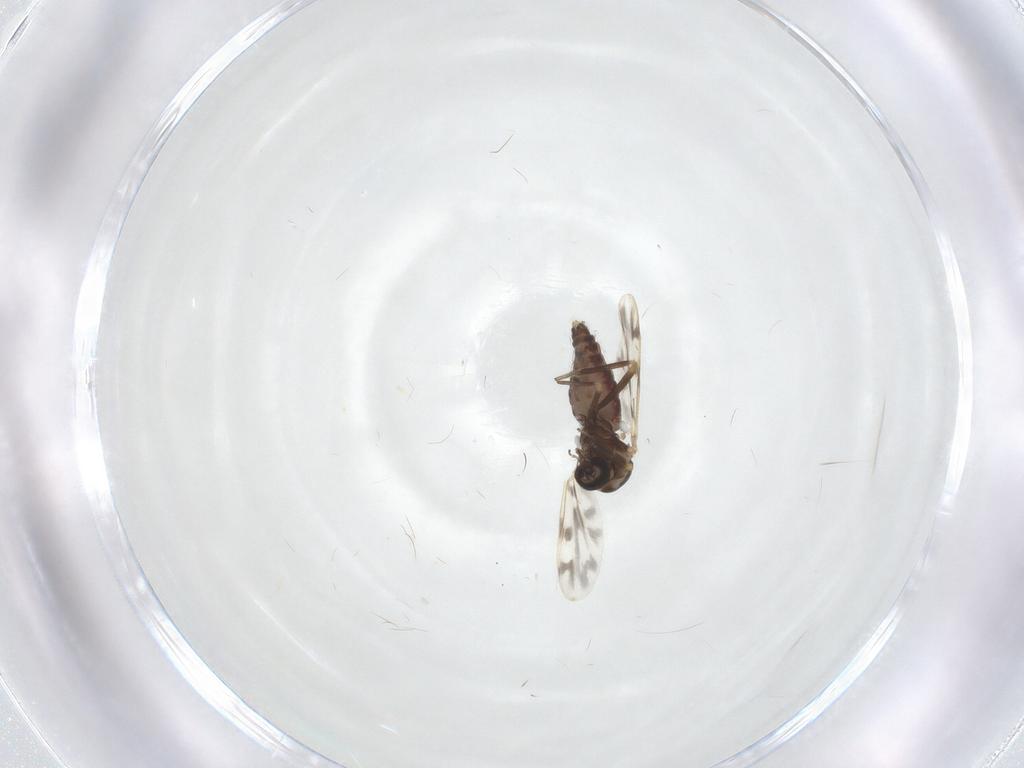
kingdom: Animalia
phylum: Arthropoda
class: Insecta
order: Diptera
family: Ceratopogonidae
